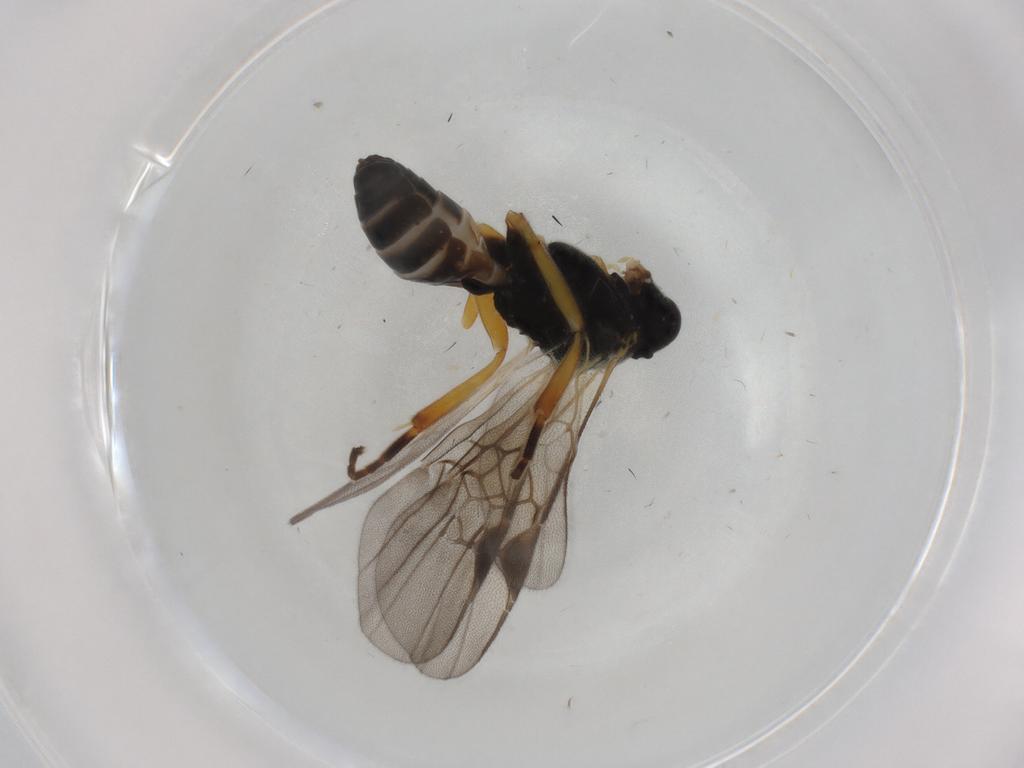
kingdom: Animalia
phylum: Arthropoda
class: Insecta
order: Hymenoptera
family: Braconidae
